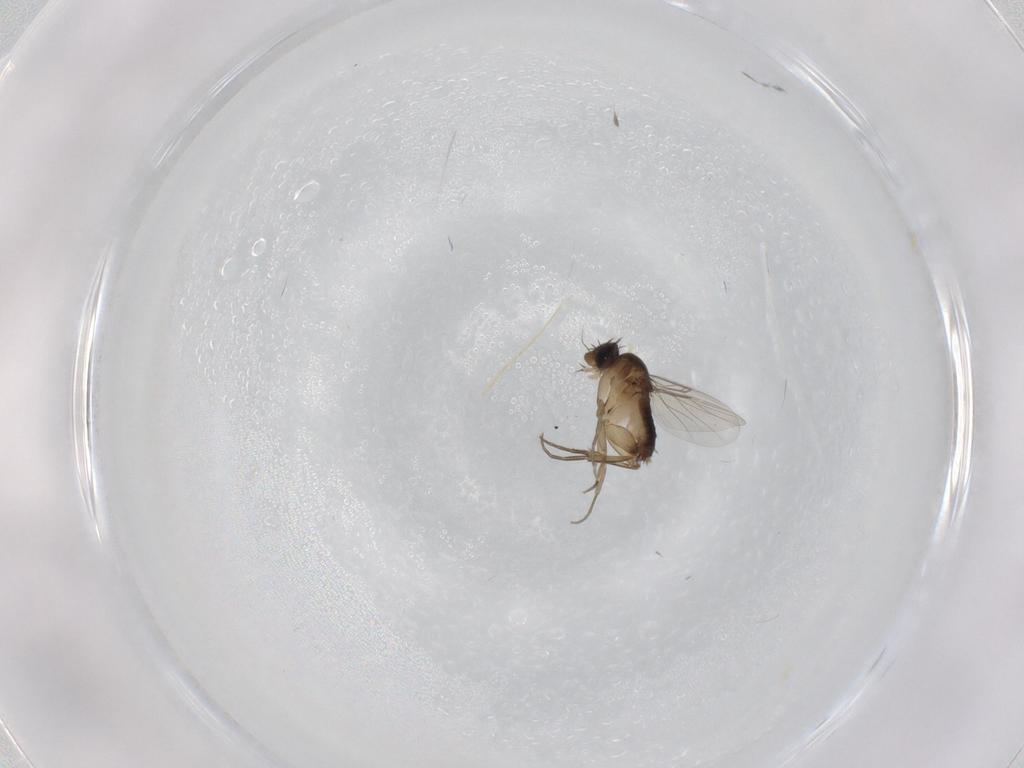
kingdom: Animalia
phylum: Arthropoda
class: Insecta
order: Diptera
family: Phoridae
